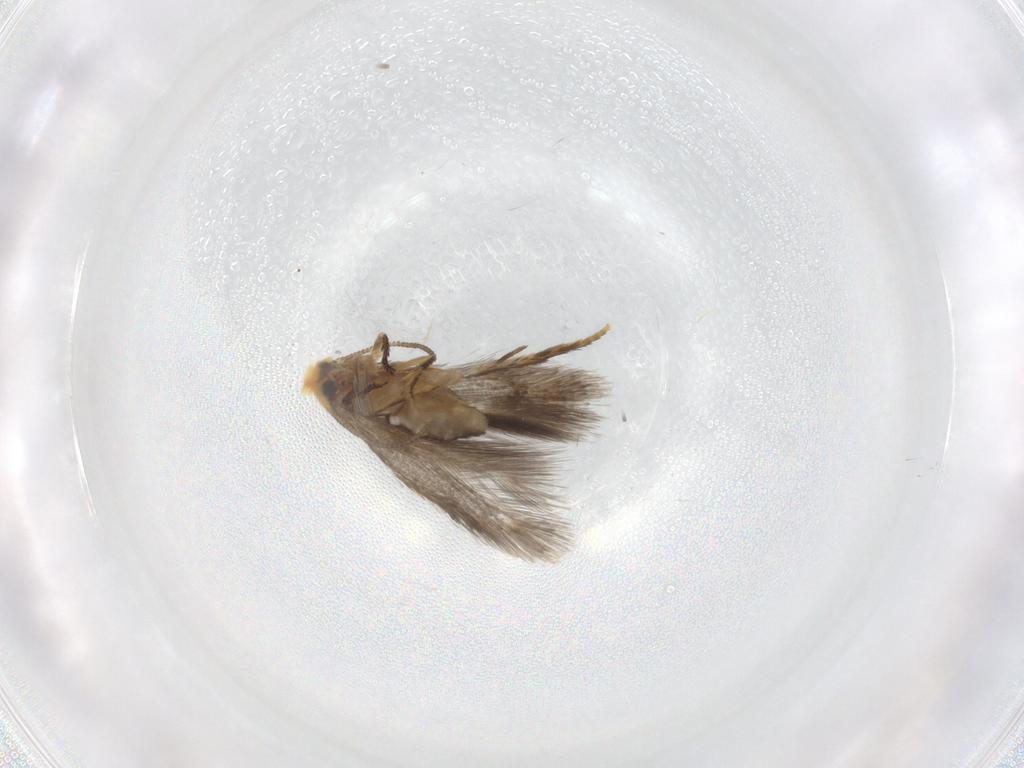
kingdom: Animalia
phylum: Arthropoda
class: Insecta
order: Lepidoptera
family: Nepticulidae
